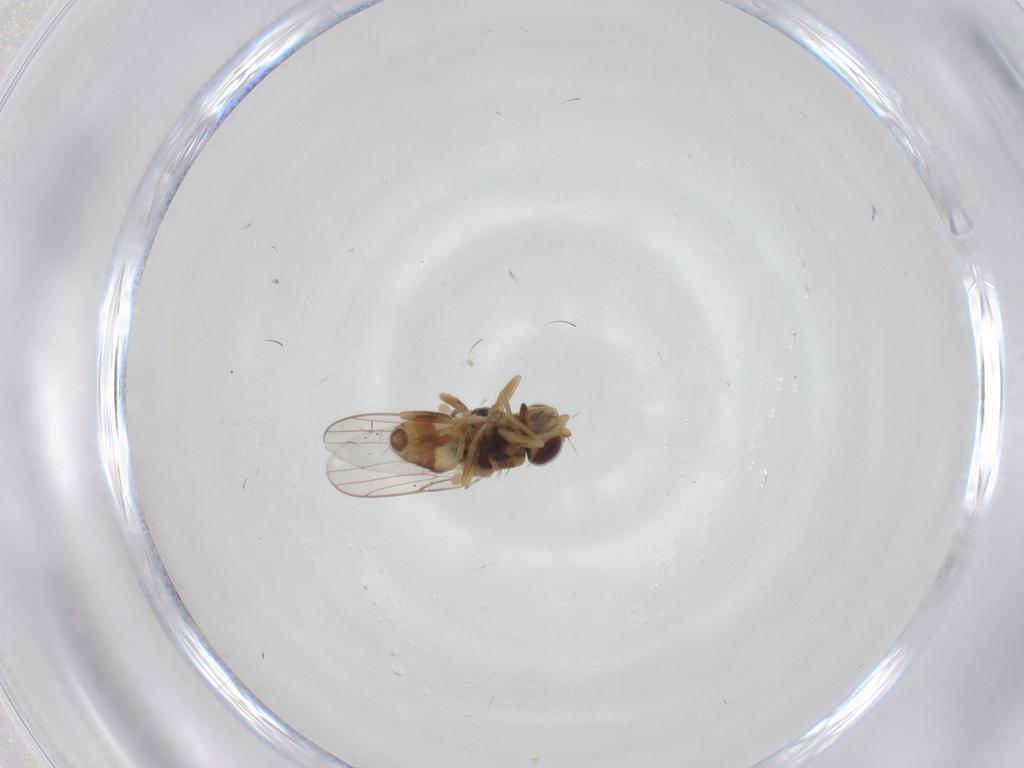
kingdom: Animalia
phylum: Arthropoda
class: Insecta
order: Diptera
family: Chloropidae
